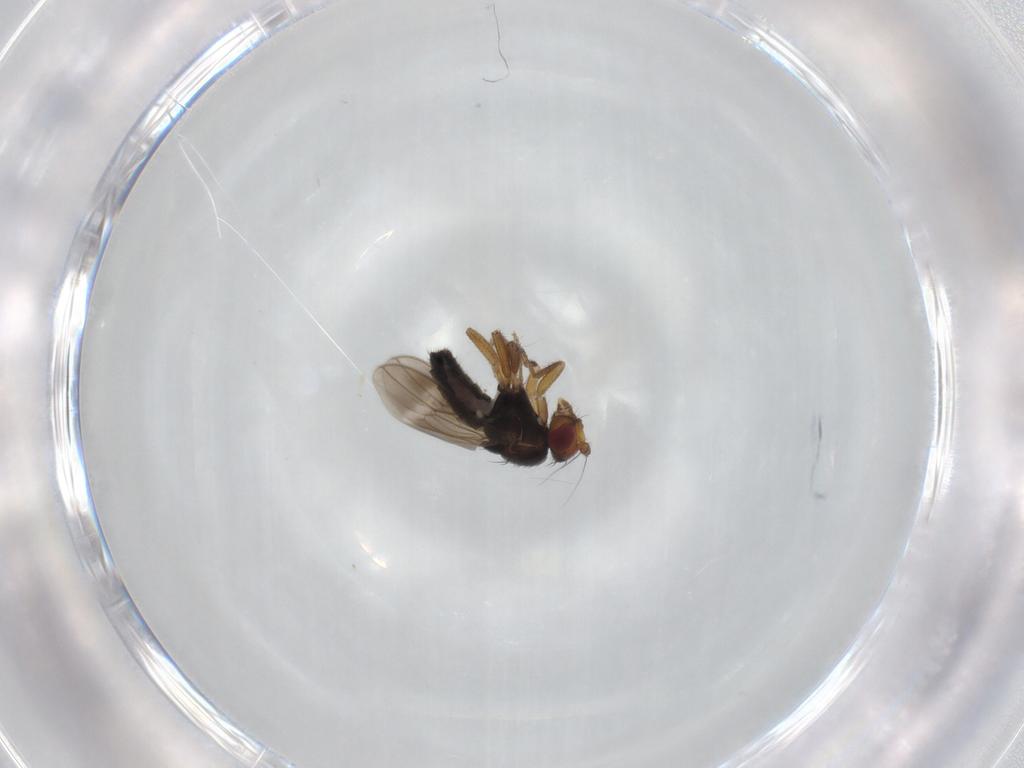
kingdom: Animalia
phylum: Arthropoda
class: Insecta
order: Diptera
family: Sphaeroceridae
